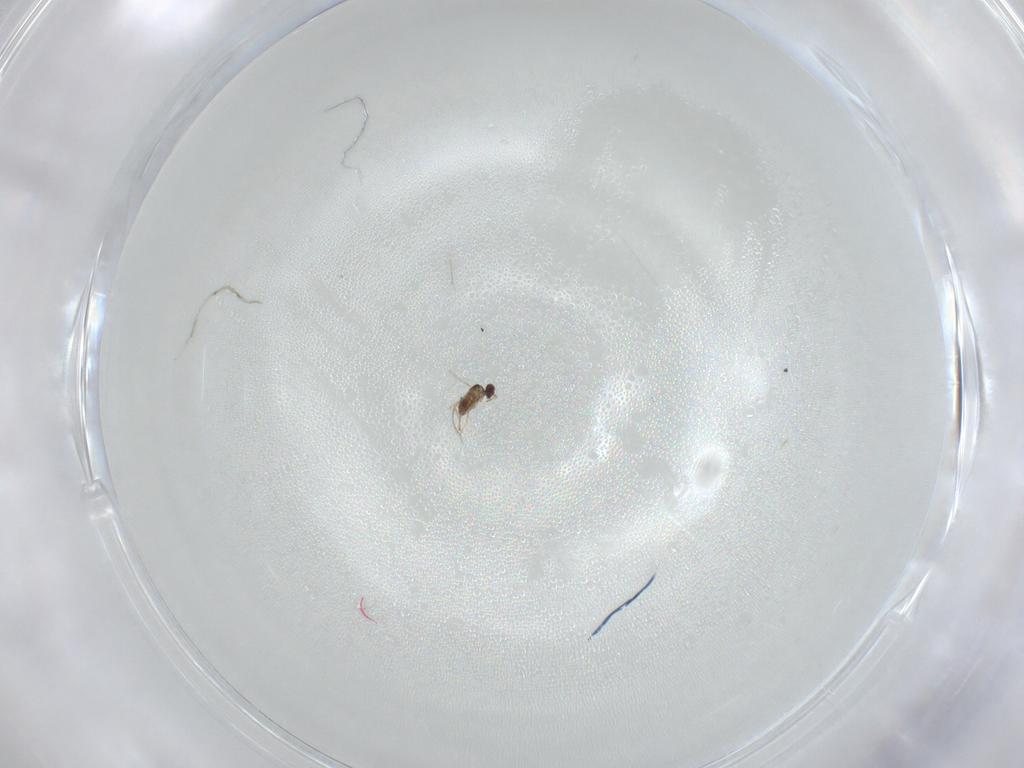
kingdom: Animalia
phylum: Arthropoda
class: Insecta
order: Hymenoptera
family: Mymaridae
